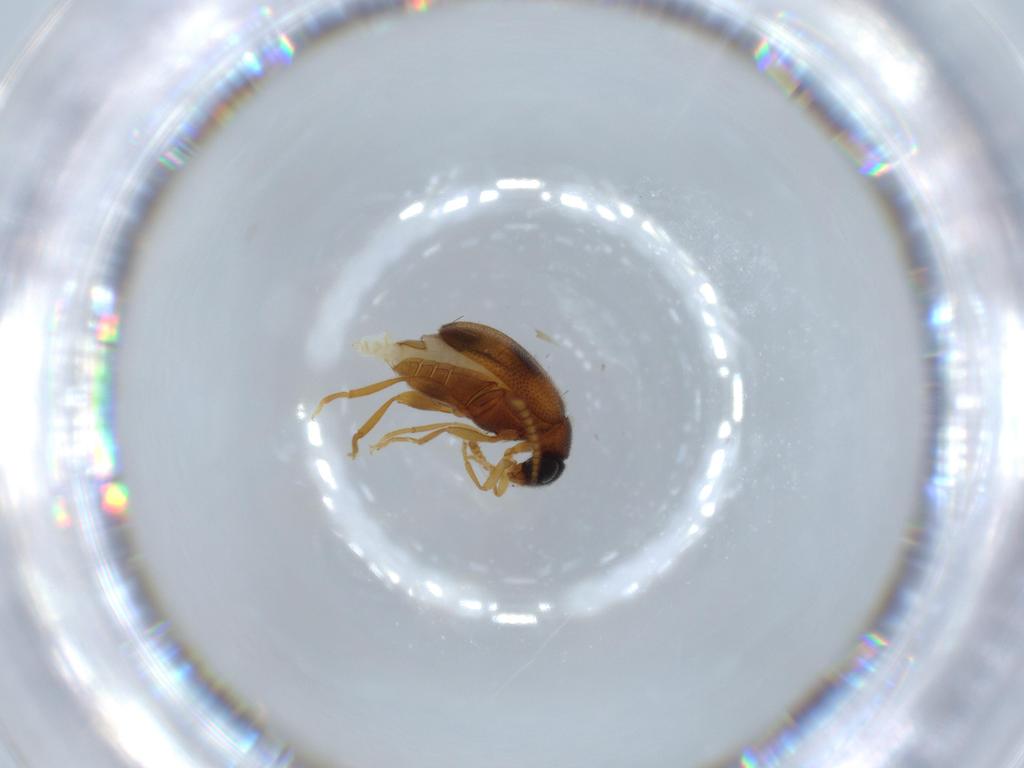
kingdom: Animalia
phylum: Arthropoda
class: Insecta
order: Coleoptera
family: Aderidae
